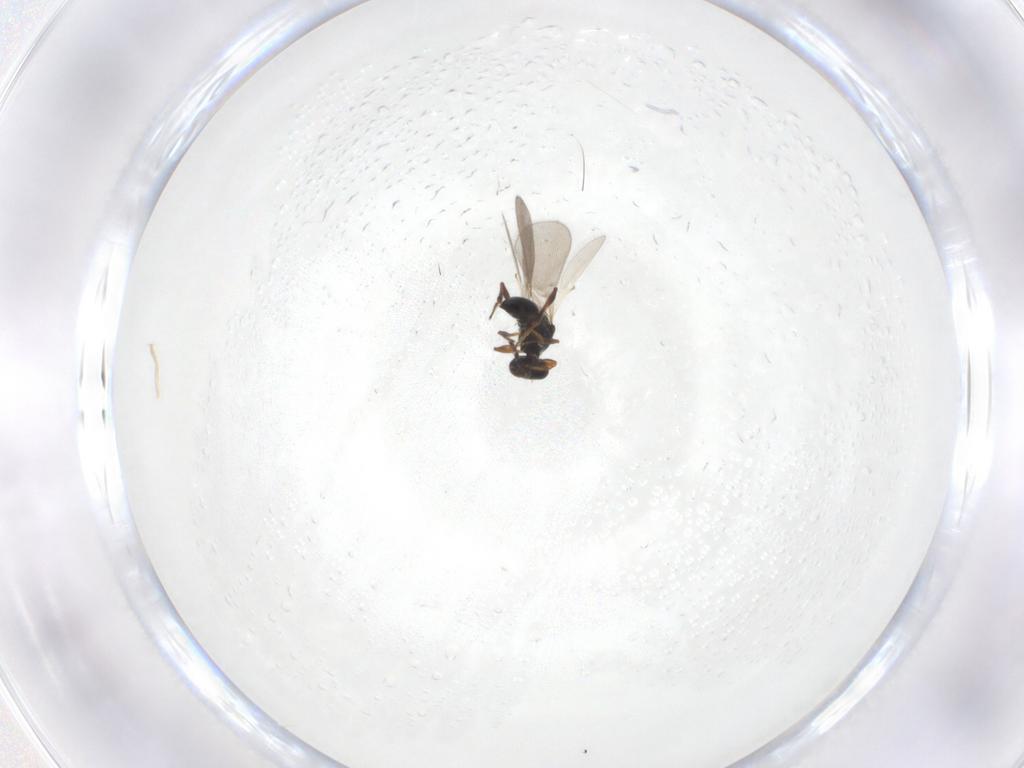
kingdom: Animalia
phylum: Arthropoda
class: Insecta
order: Hymenoptera
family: Platygastridae
